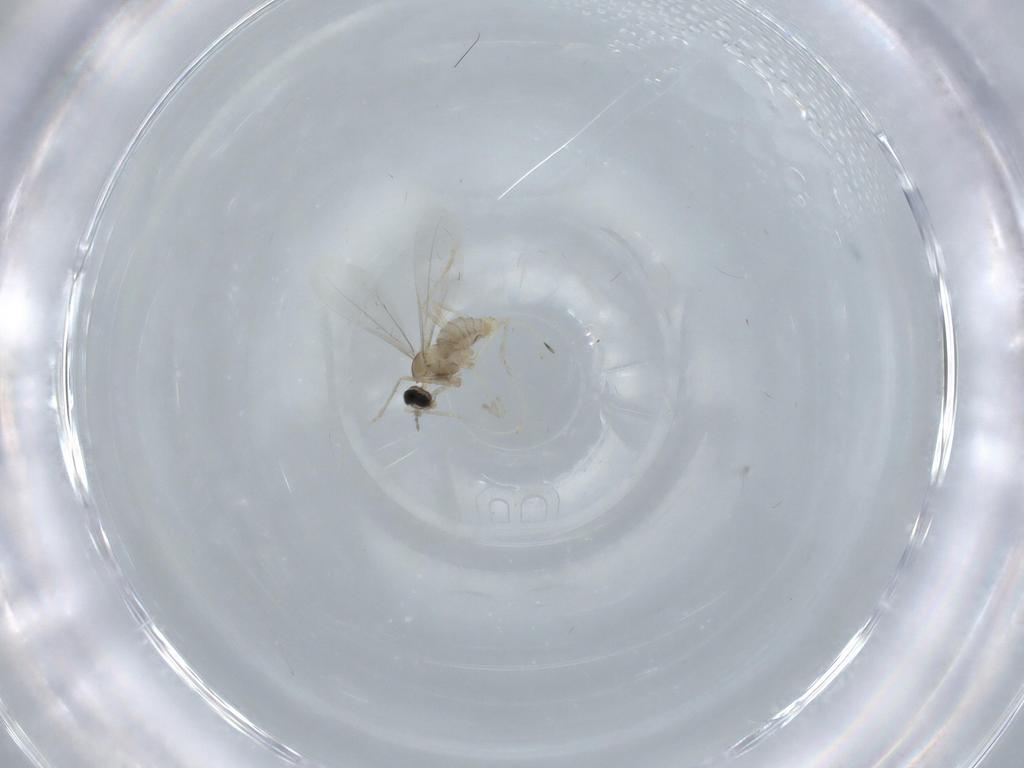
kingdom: Animalia
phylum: Arthropoda
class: Insecta
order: Diptera
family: Cecidomyiidae
